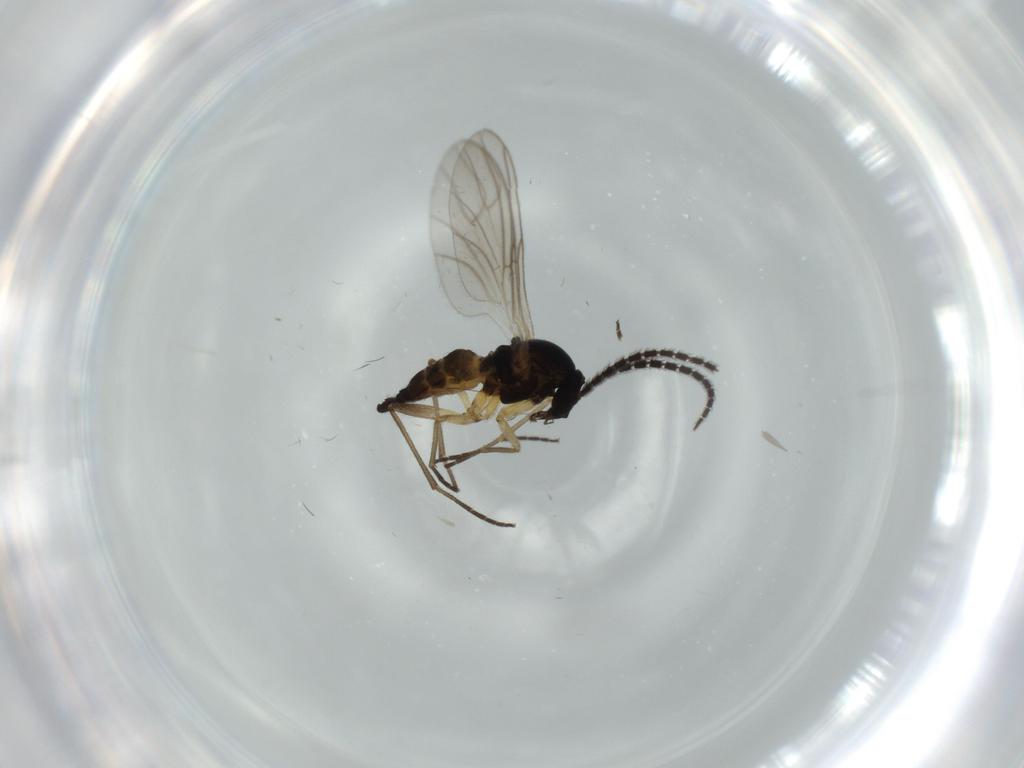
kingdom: Animalia
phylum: Arthropoda
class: Insecta
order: Diptera
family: Sciaridae
